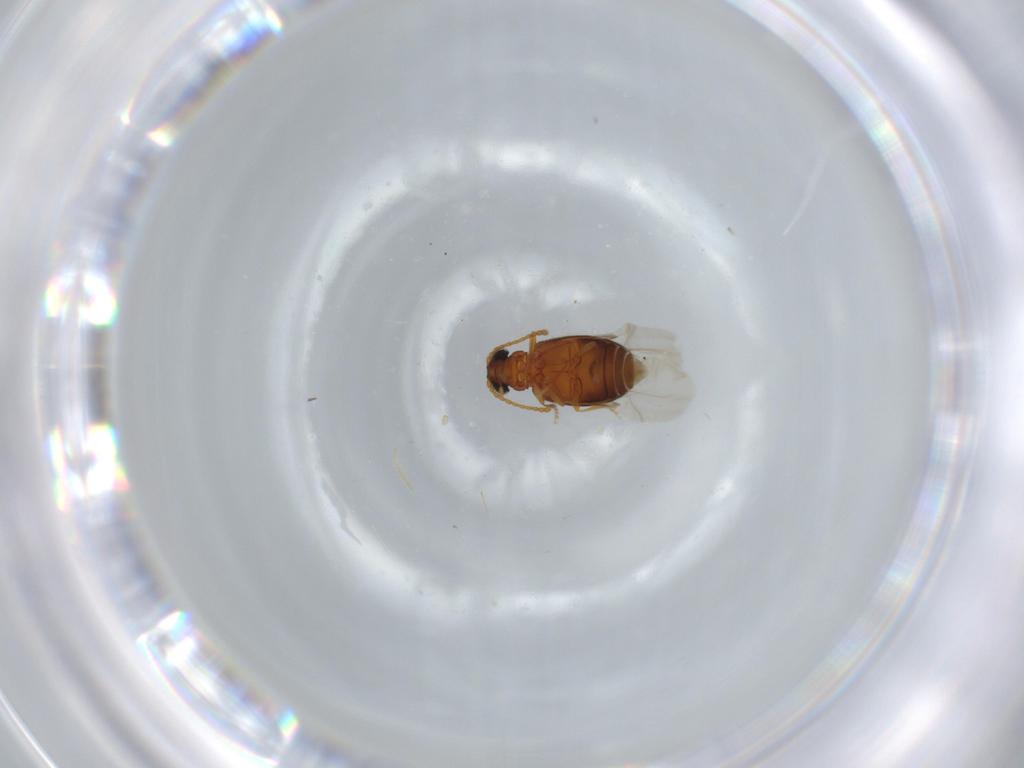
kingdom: Animalia
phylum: Arthropoda
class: Insecta
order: Coleoptera
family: Aderidae
